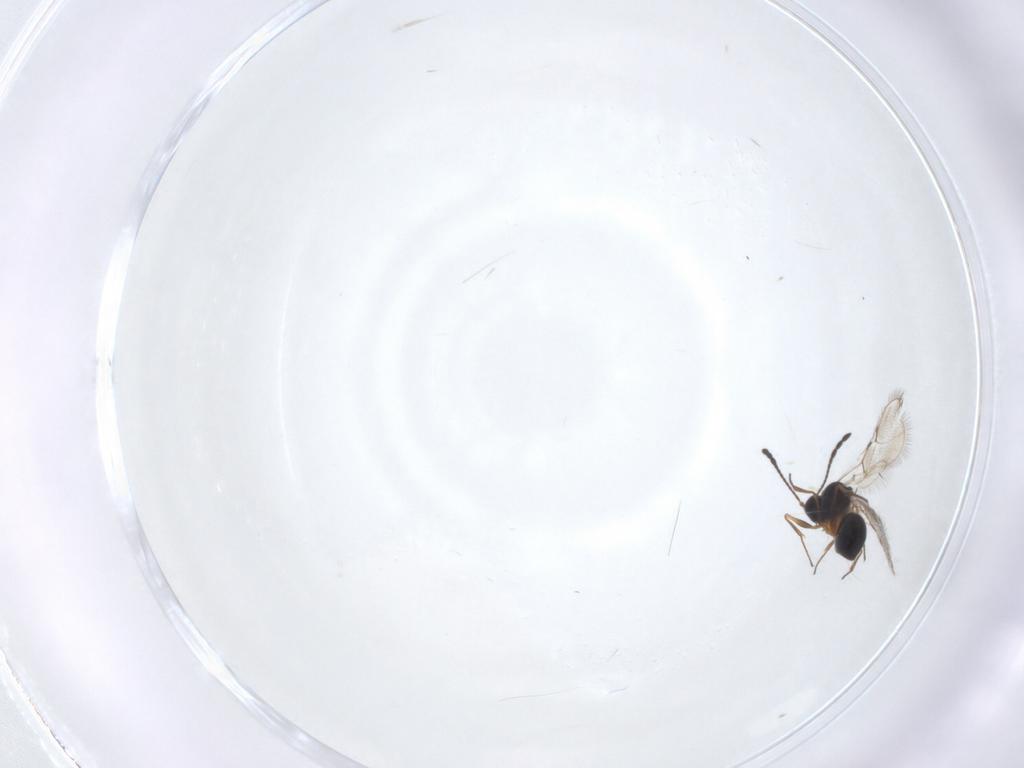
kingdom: Animalia
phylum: Arthropoda
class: Insecta
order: Hymenoptera
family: Figitidae
